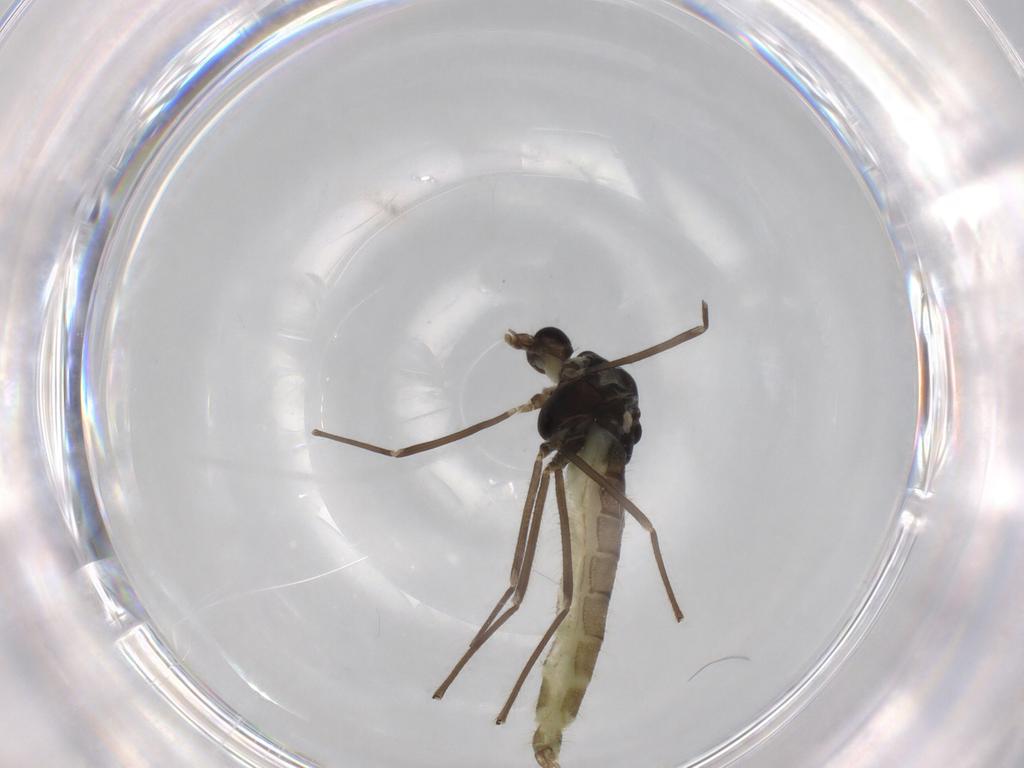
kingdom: Animalia
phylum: Arthropoda
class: Insecta
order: Diptera
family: Chironomidae
